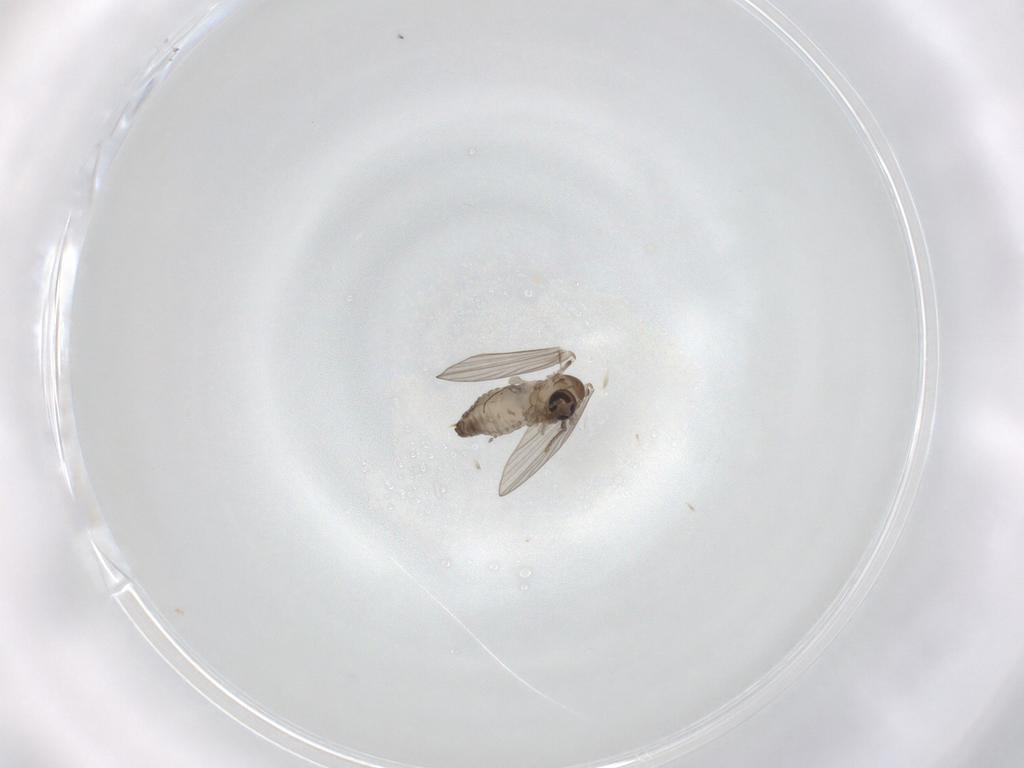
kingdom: Animalia
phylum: Arthropoda
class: Insecta
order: Diptera
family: Psychodidae
